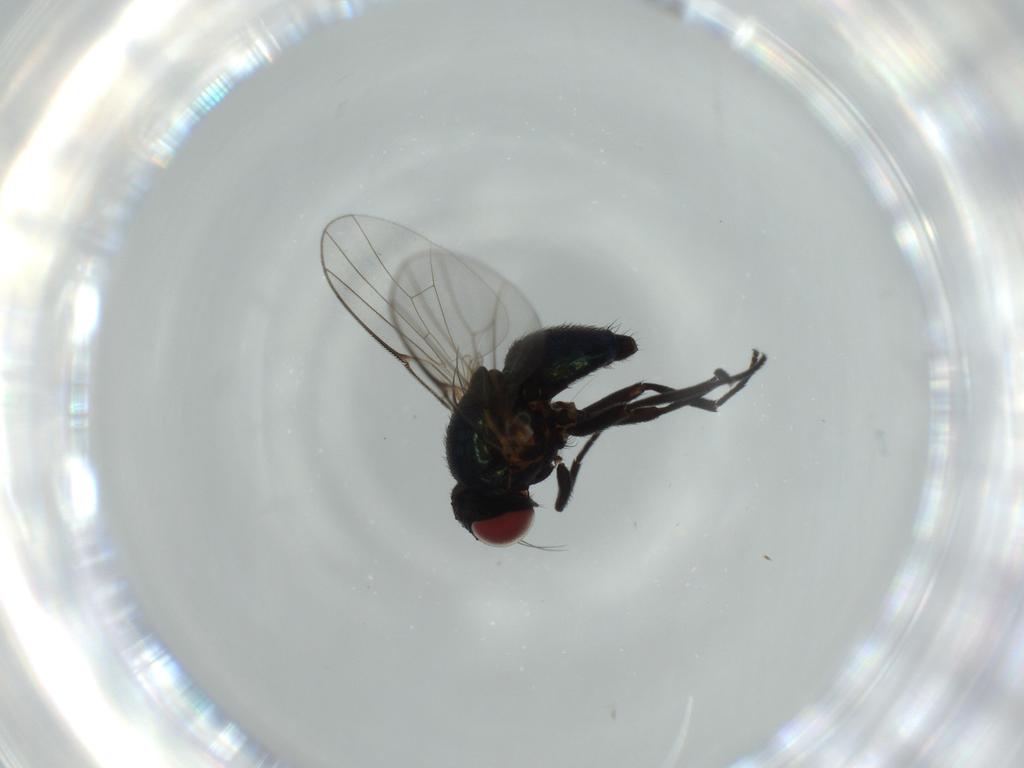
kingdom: Animalia
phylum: Arthropoda
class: Insecta
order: Diptera
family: Agromyzidae
